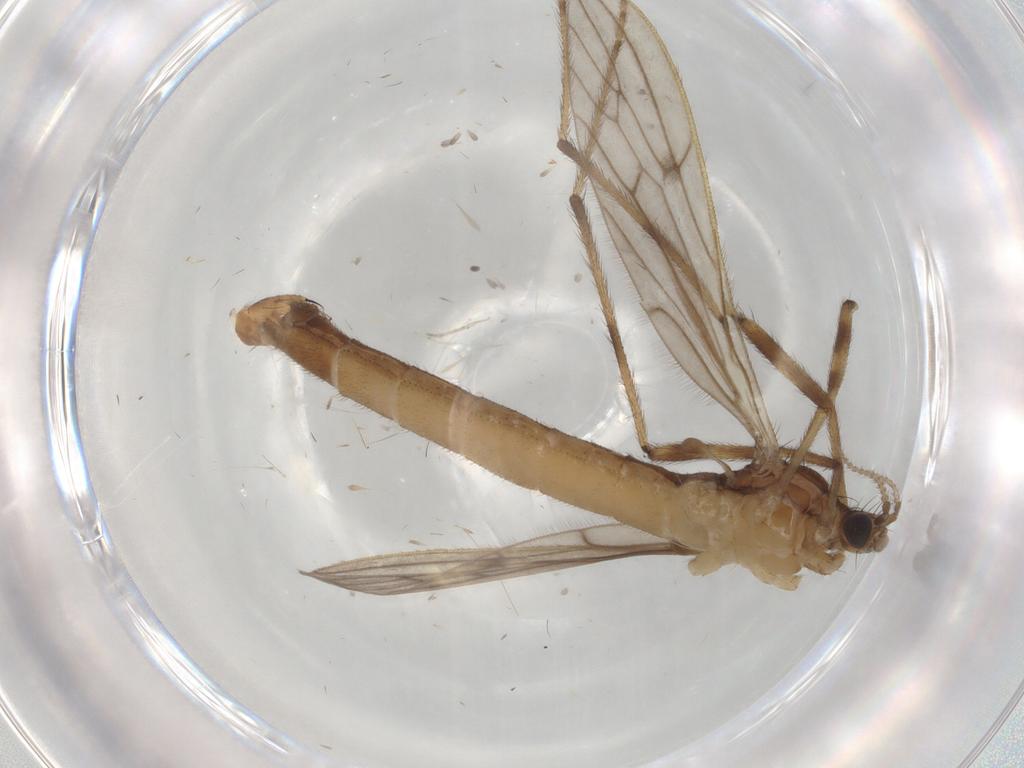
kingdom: Animalia
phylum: Arthropoda
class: Insecta
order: Diptera
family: Limoniidae
